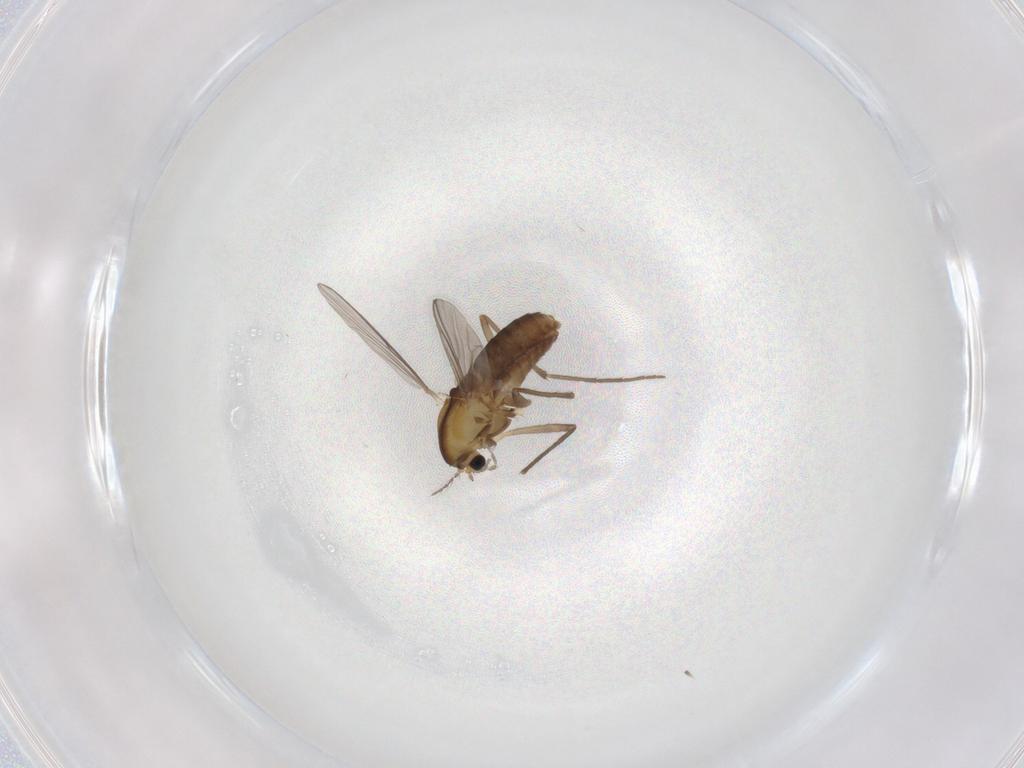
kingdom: Animalia
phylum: Arthropoda
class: Insecta
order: Diptera
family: Chironomidae
